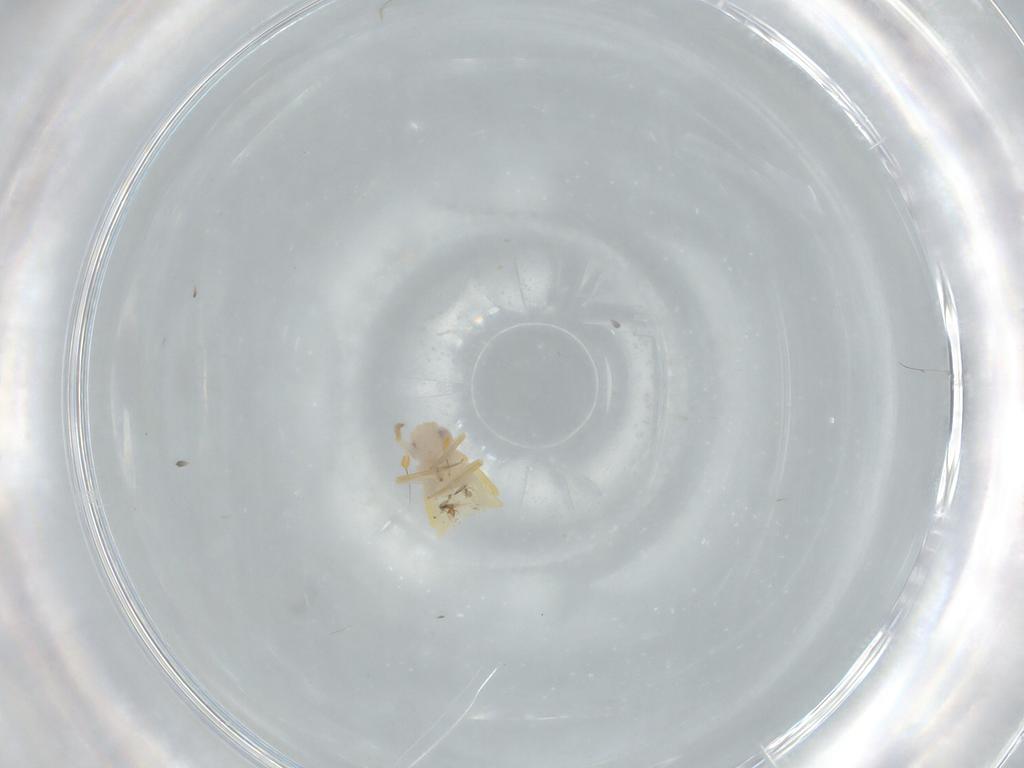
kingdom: Animalia
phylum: Arthropoda
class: Insecta
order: Hemiptera
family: Delphacidae
